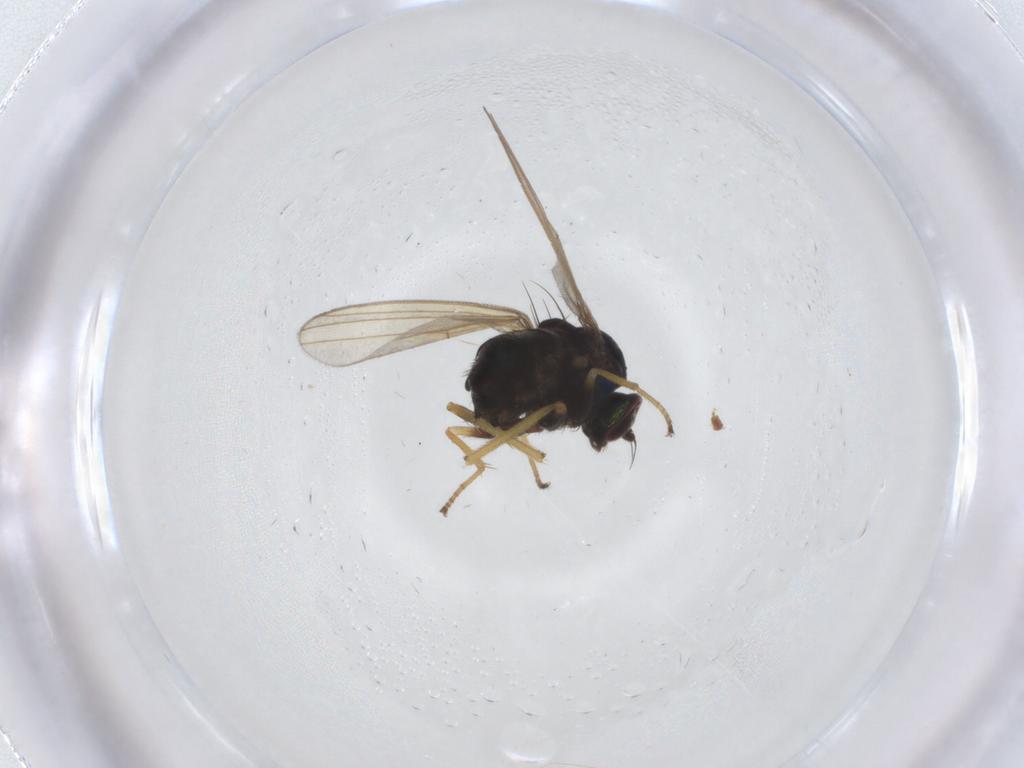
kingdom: Animalia
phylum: Arthropoda
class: Insecta
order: Diptera
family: Dolichopodidae
